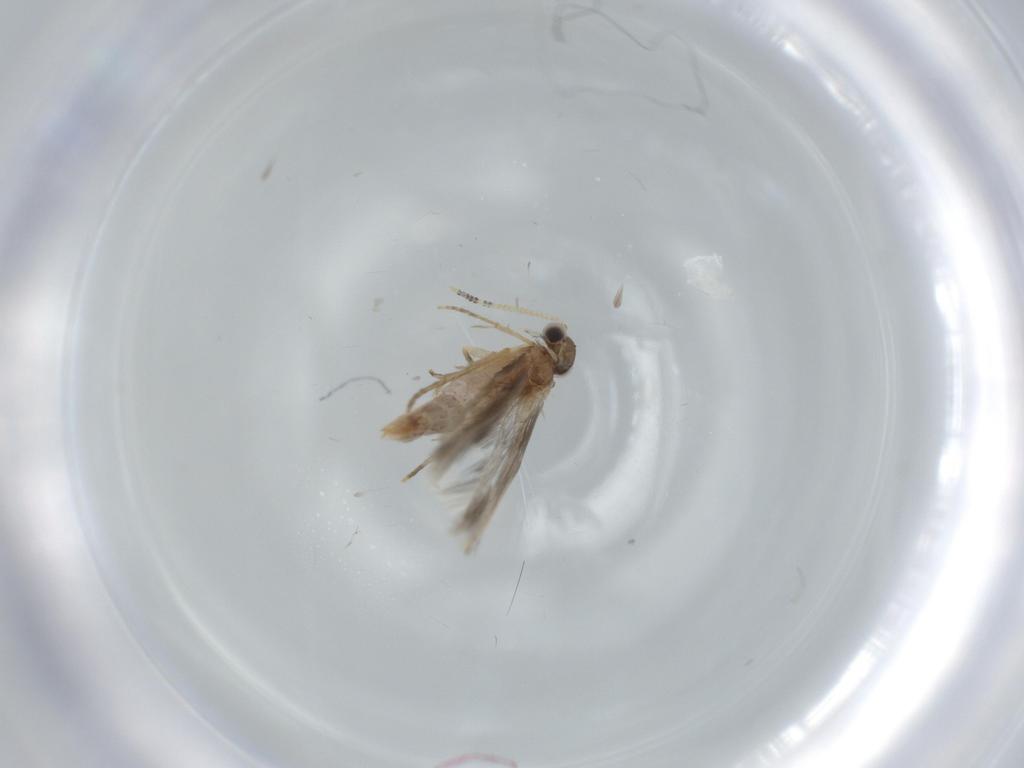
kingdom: Animalia
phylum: Arthropoda
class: Insecta
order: Trichoptera
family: Hydroptilidae
